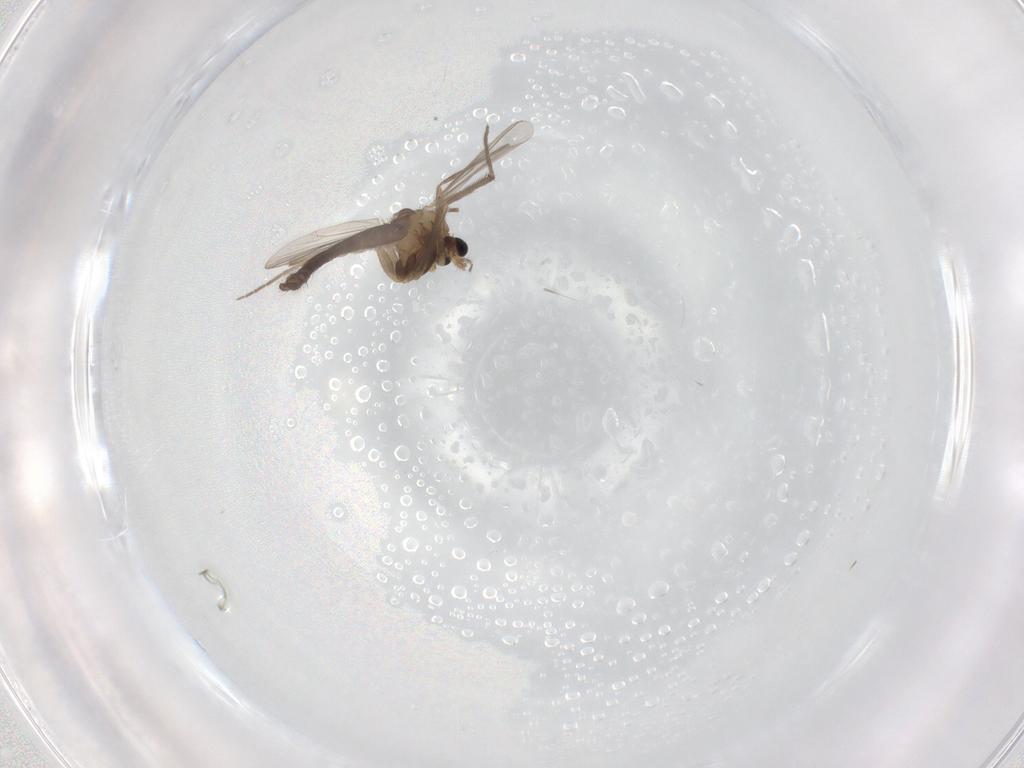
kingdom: Animalia
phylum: Arthropoda
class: Insecta
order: Diptera
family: Chironomidae
